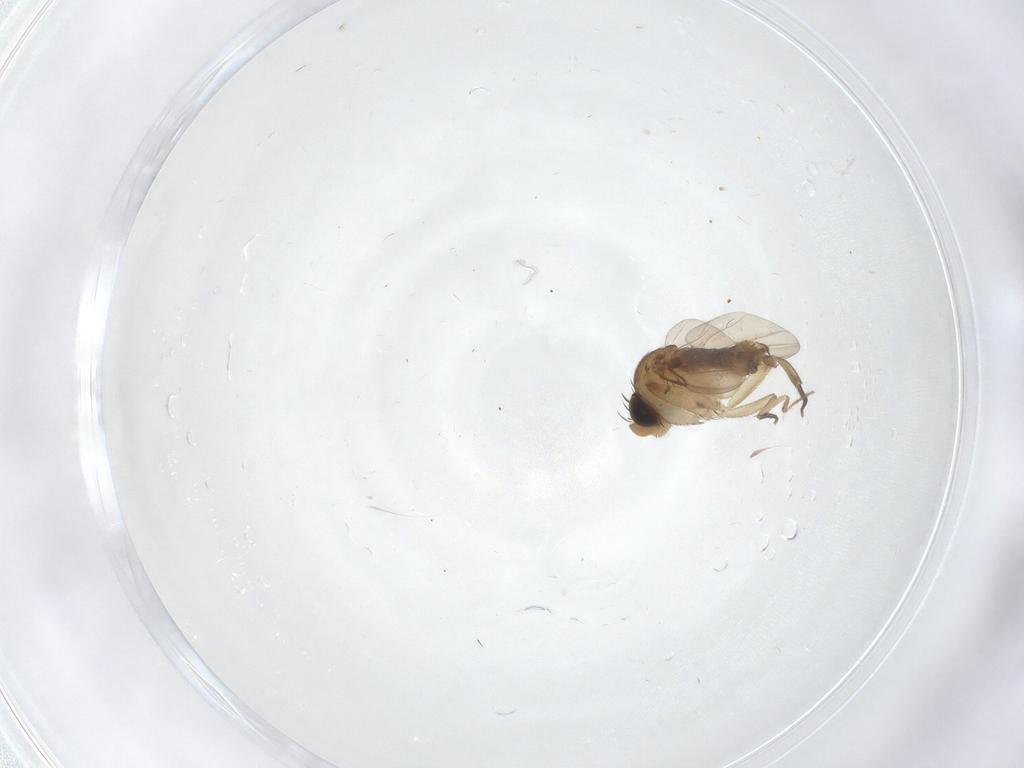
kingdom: Animalia
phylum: Arthropoda
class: Insecta
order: Diptera
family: Phoridae
